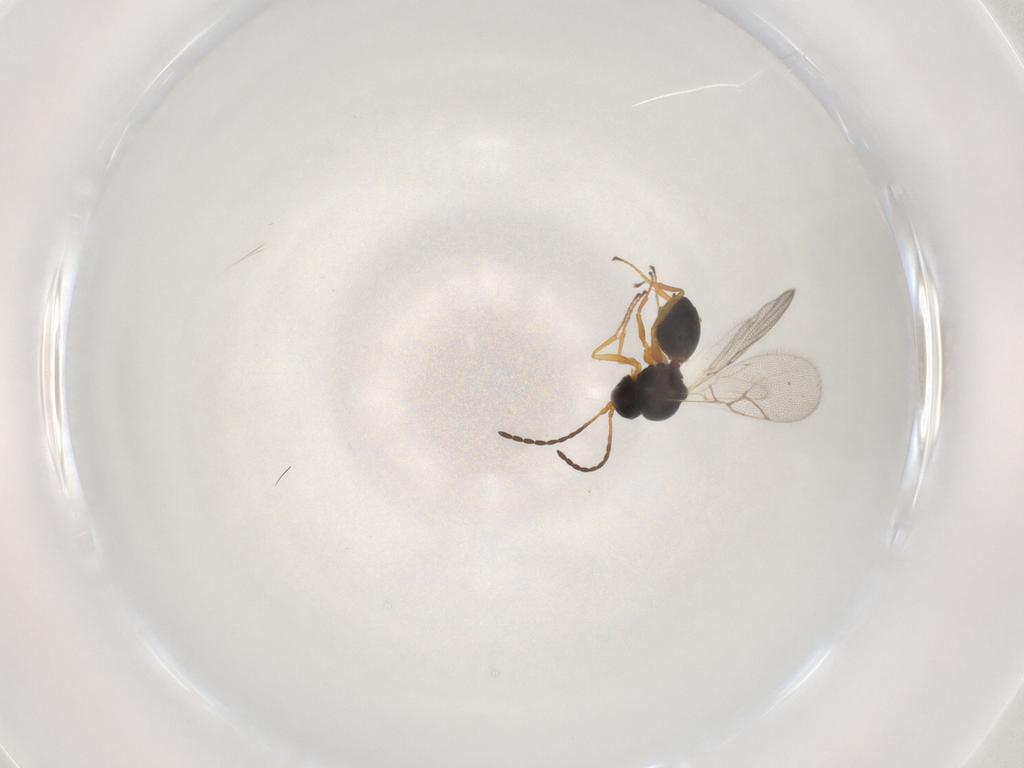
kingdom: Animalia
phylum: Arthropoda
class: Insecta
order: Hymenoptera
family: Figitidae
